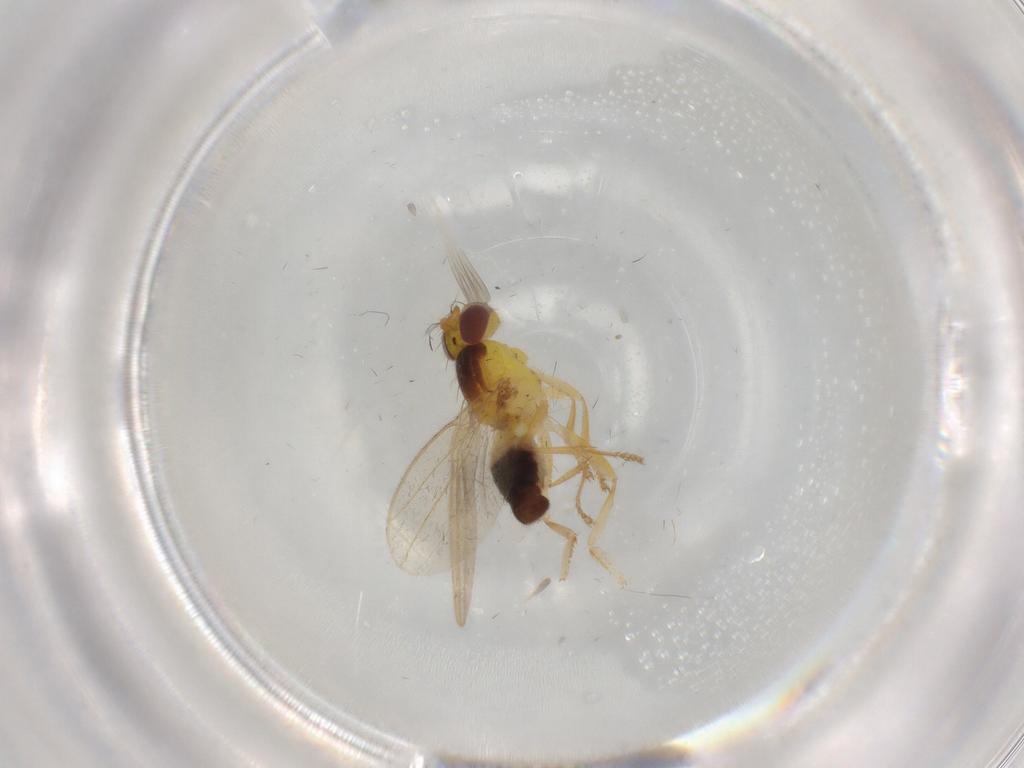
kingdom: Animalia
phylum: Arthropoda
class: Insecta
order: Diptera
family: Periscelididae
